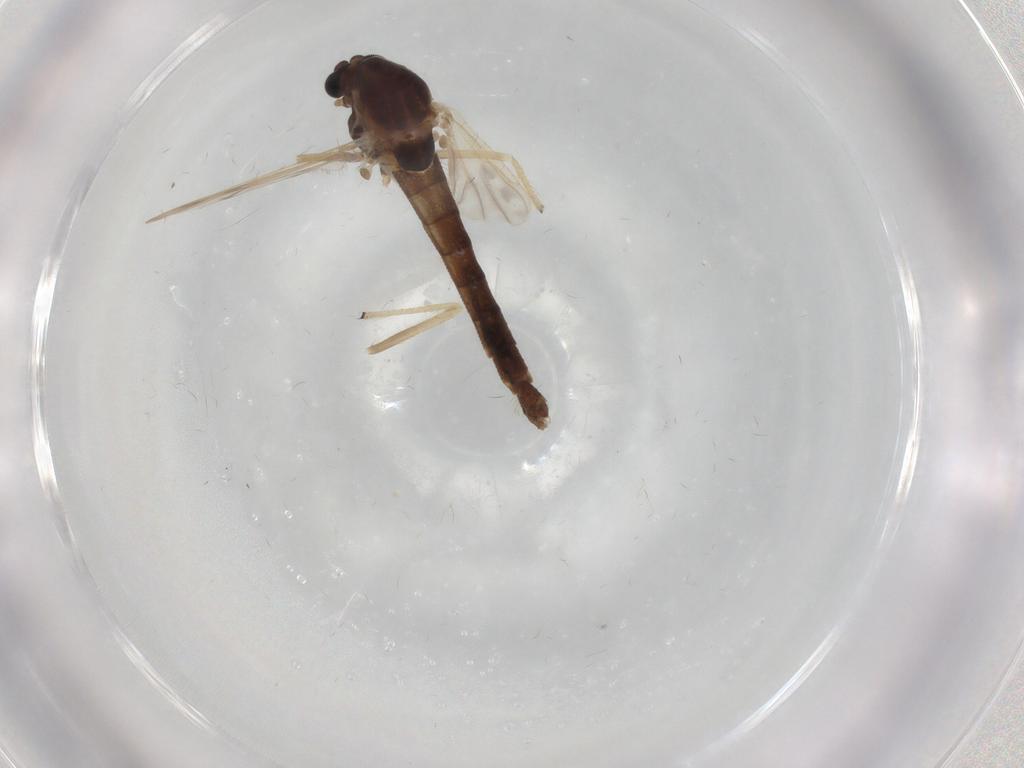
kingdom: Animalia
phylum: Arthropoda
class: Insecta
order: Diptera
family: Chironomidae
